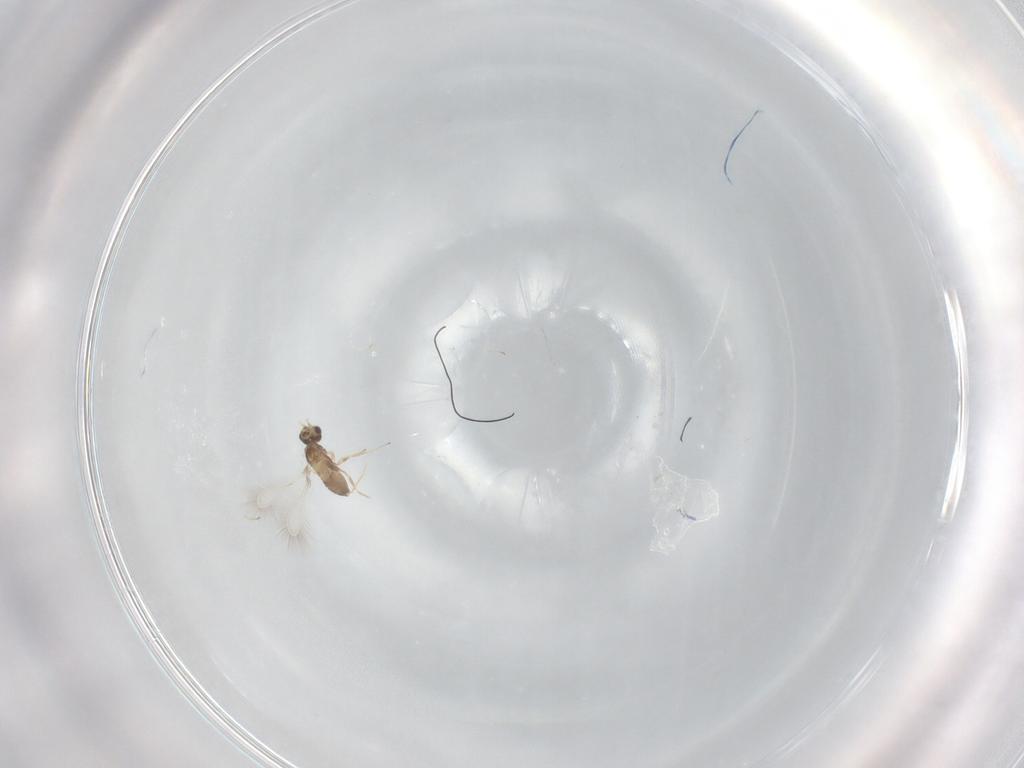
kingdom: Animalia
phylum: Arthropoda
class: Insecta
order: Hymenoptera
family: Mymaridae
